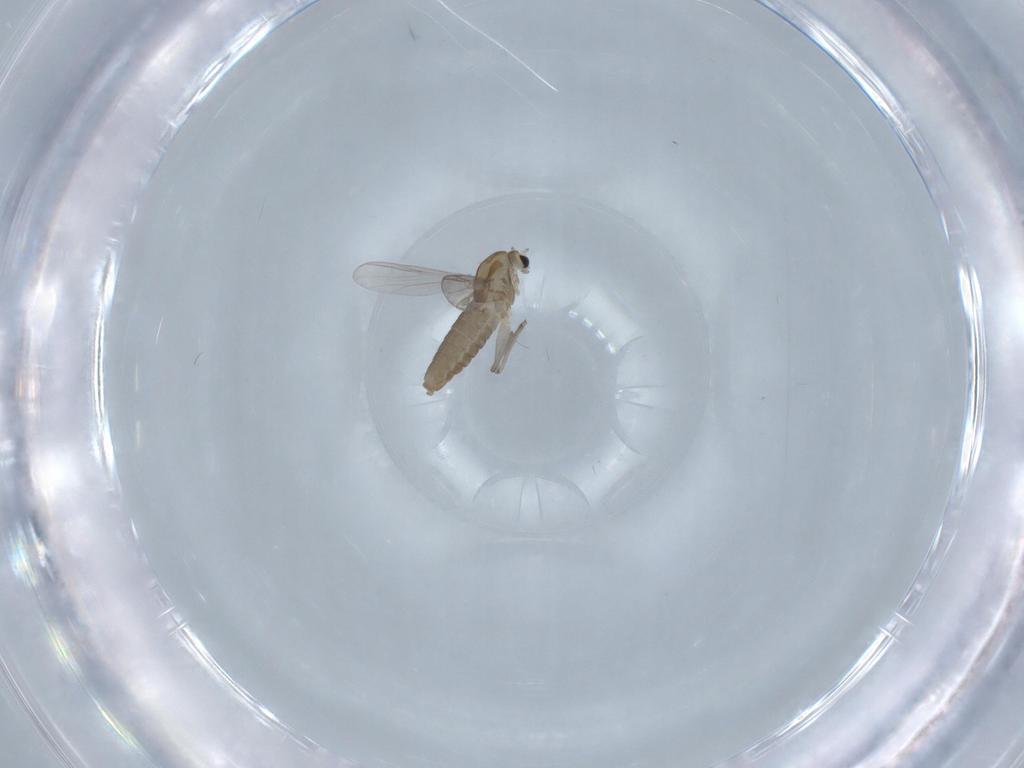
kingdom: Animalia
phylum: Arthropoda
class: Insecta
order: Diptera
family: Chironomidae
